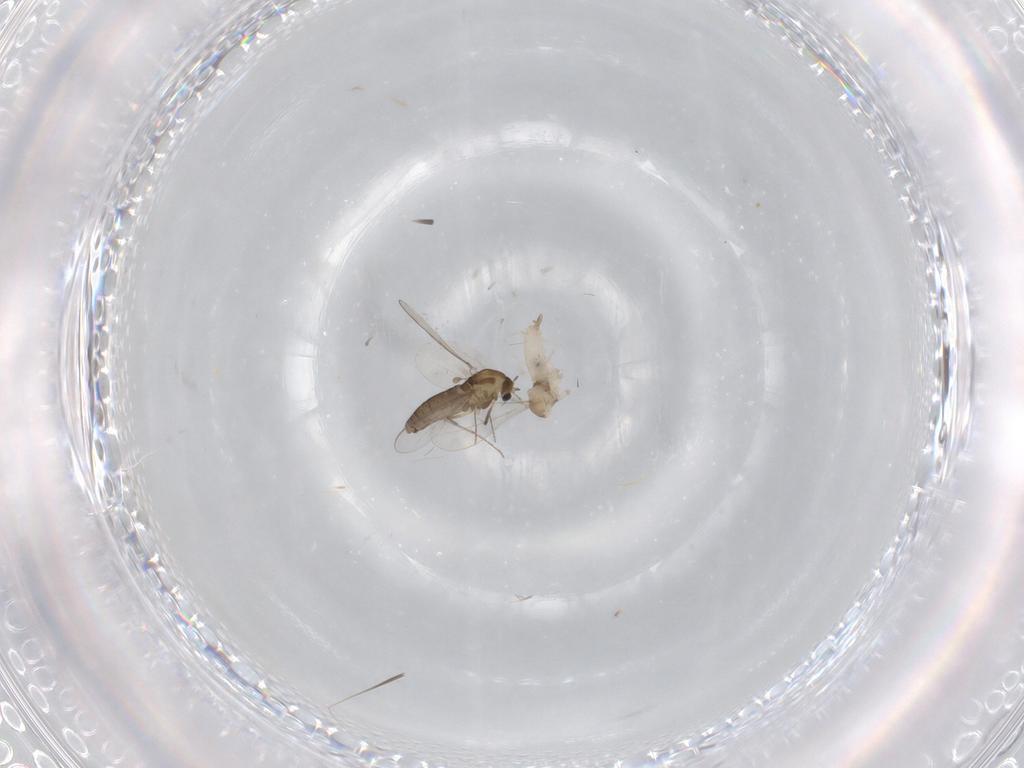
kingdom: Animalia
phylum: Arthropoda
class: Insecta
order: Diptera
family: Chironomidae
